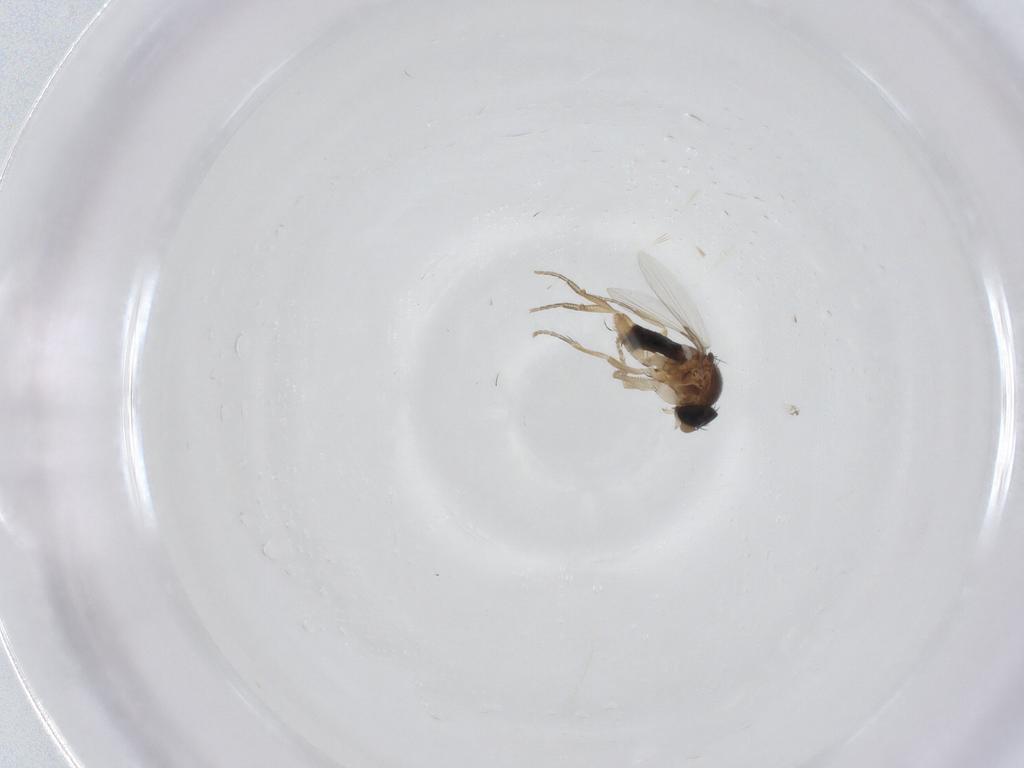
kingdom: Animalia
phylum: Arthropoda
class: Insecta
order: Diptera
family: Phoridae
